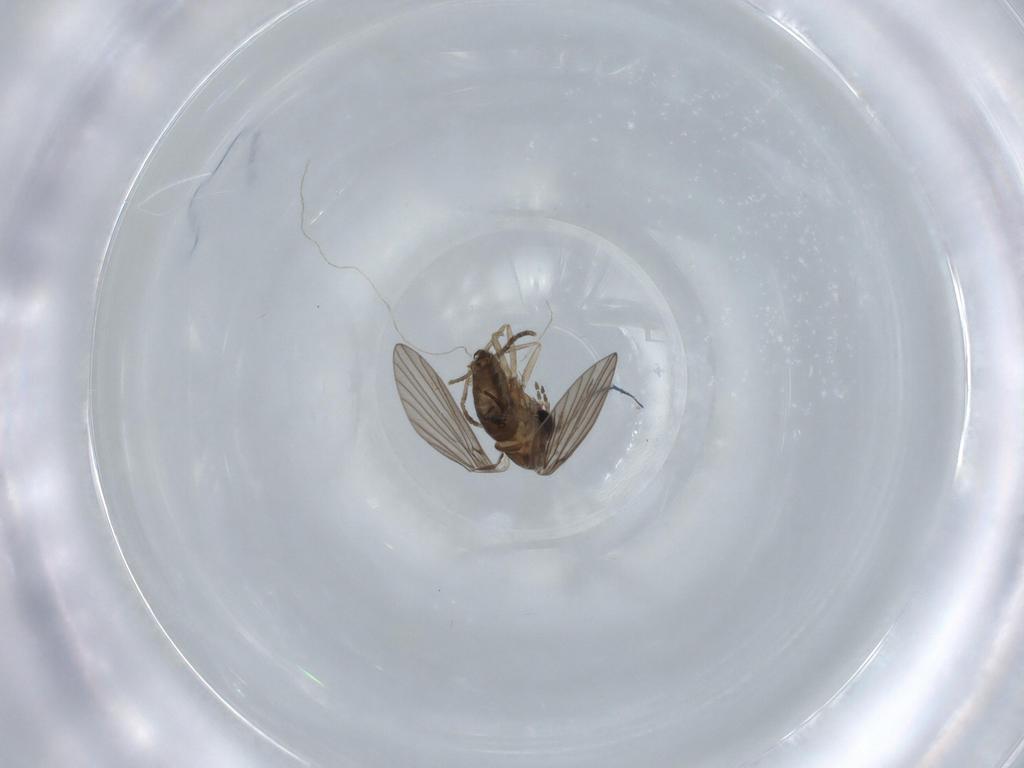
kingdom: Animalia
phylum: Arthropoda
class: Insecta
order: Diptera
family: Psychodidae
